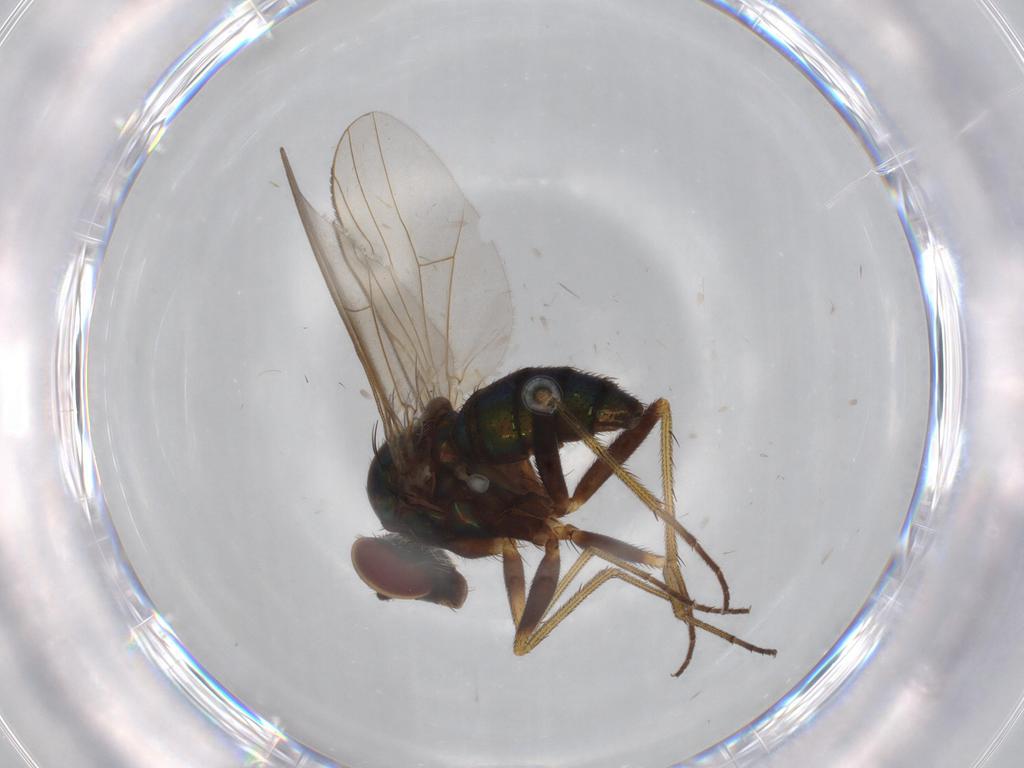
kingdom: Animalia
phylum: Arthropoda
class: Insecta
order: Diptera
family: Dolichopodidae
